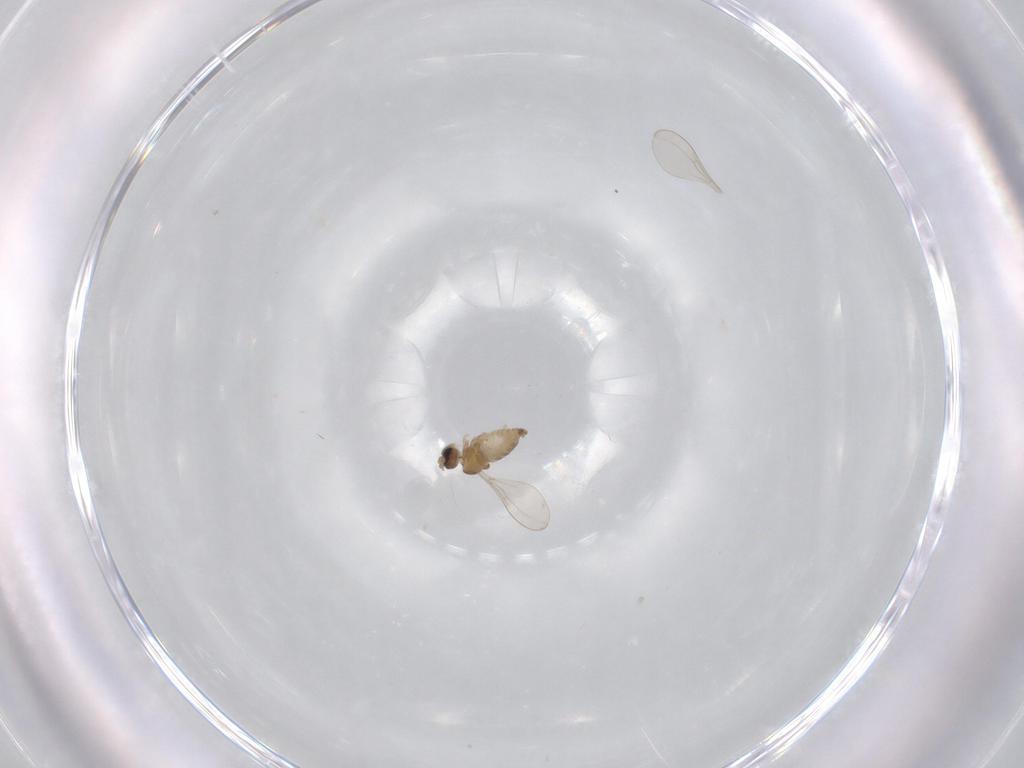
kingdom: Animalia
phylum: Arthropoda
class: Insecta
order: Diptera
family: Cecidomyiidae
